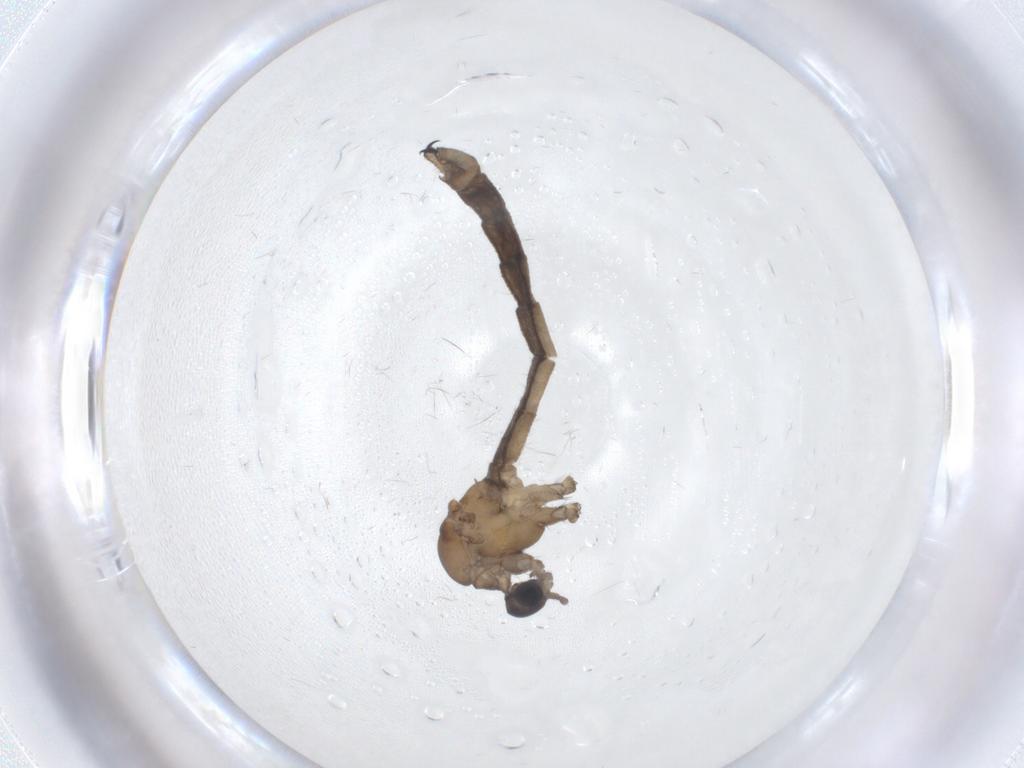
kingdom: Animalia
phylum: Arthropoda
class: Insecta
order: Diptera
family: Limoniidae
